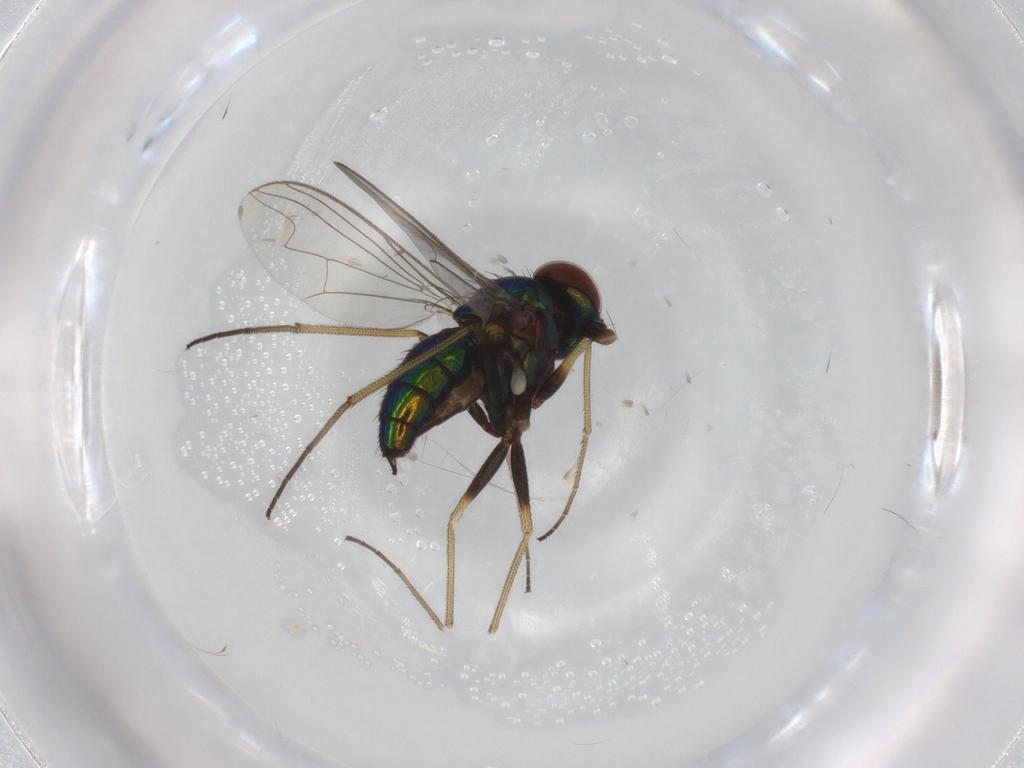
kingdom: Animalia
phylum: Arthropoda
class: Insecta
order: Diptera
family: Dolichopodidae
